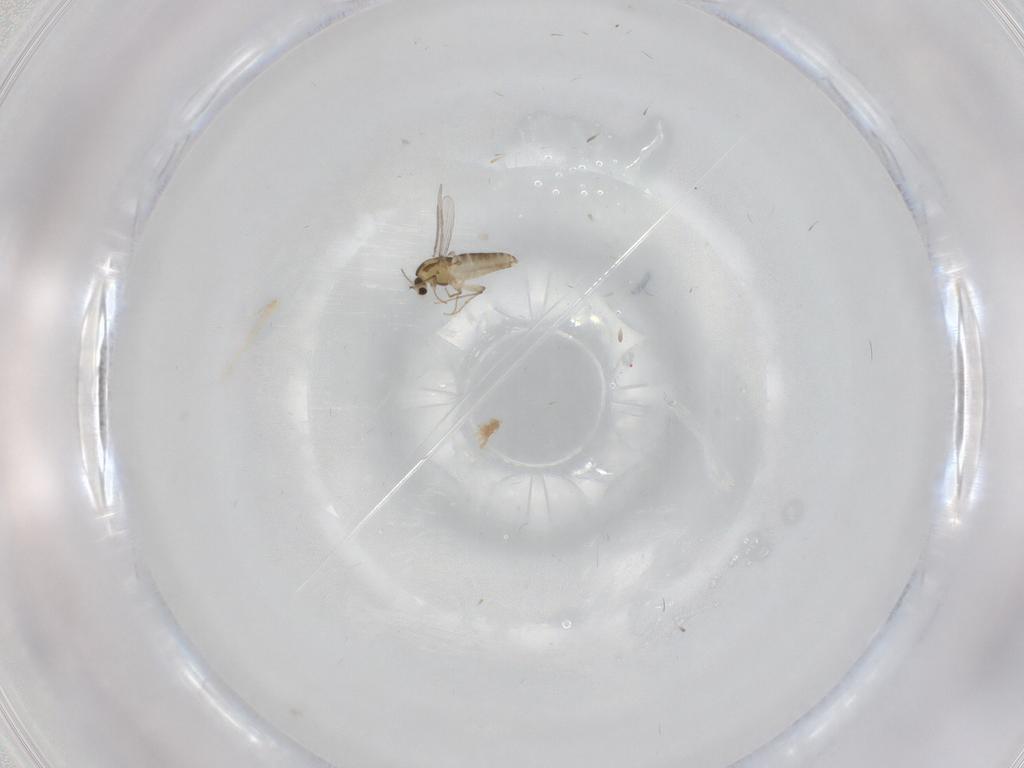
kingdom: Animalia
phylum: Arthropoda
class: Insecta
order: Diptera
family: Chironomidae
